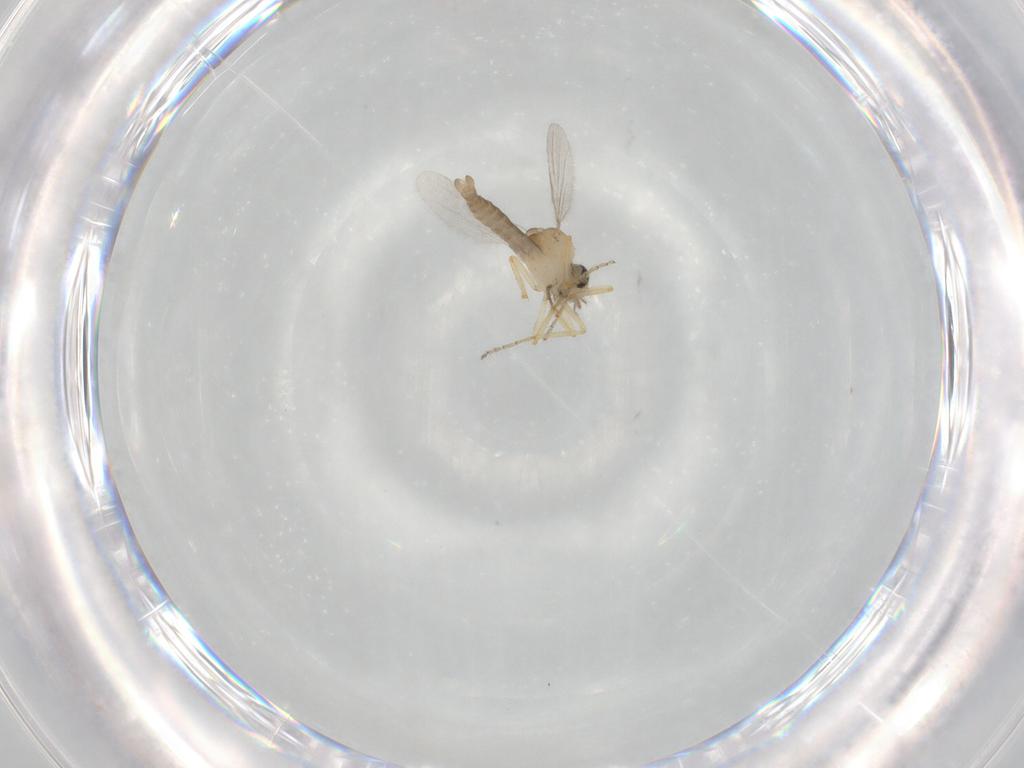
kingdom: Animalia
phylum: Arthropoda
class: Insecta
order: Diptera
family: Ceratopogonidae
